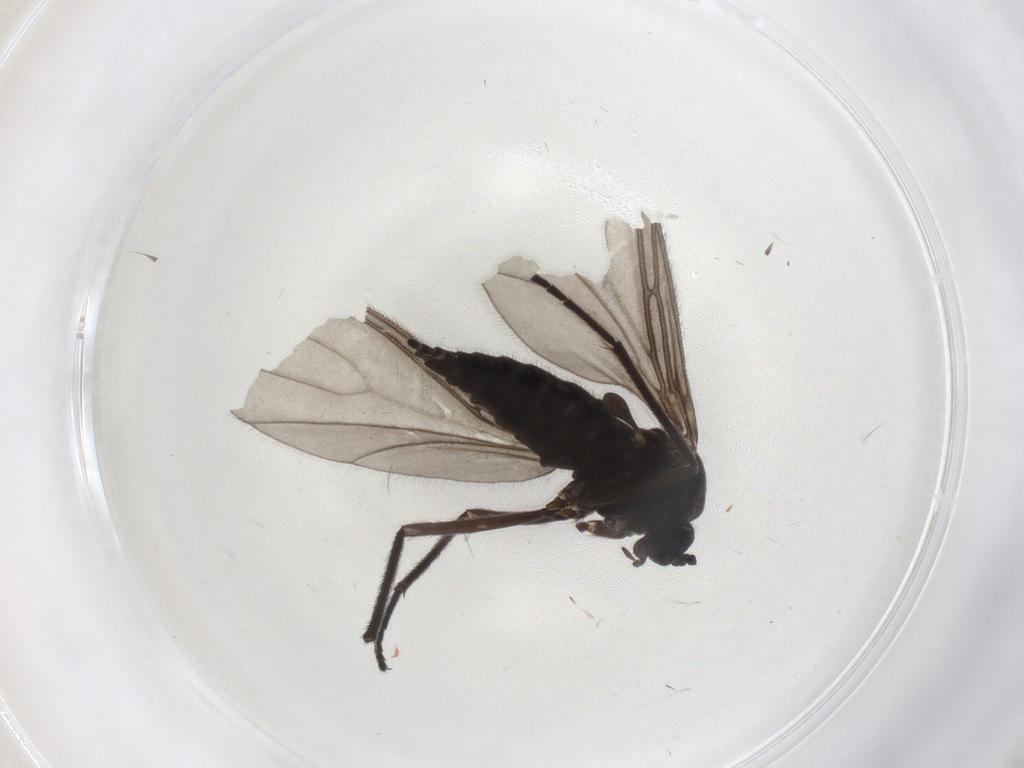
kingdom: Animalia
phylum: Arthropoda
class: Insecta
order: Diptera
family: Sciaridae
